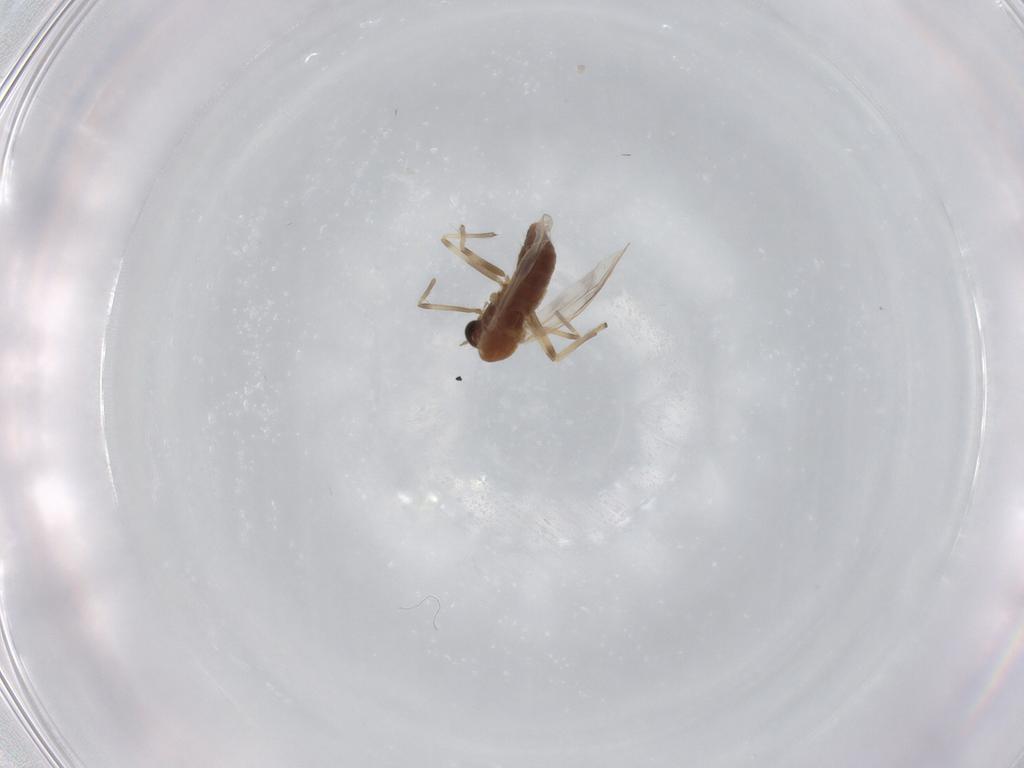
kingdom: Animalia
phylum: Arthropoda
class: Insecta
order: Diptera
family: Chironomidae
